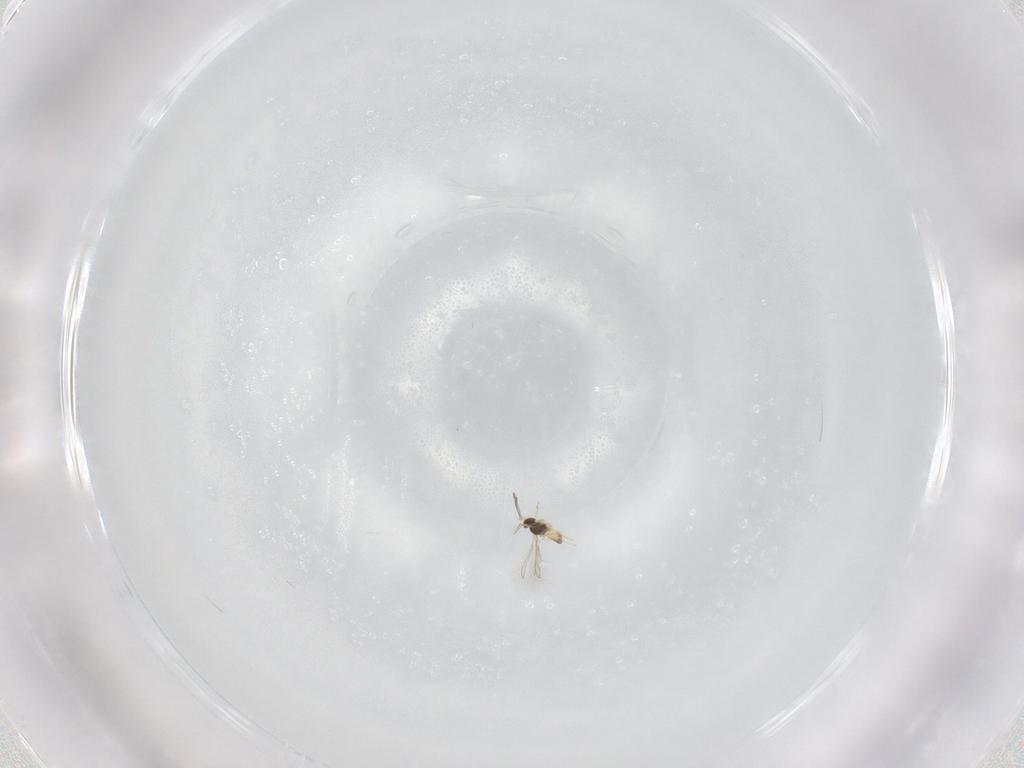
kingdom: Animalia
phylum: Arthropoda
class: Insecta
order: Hymenoptera
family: Eulophidae
